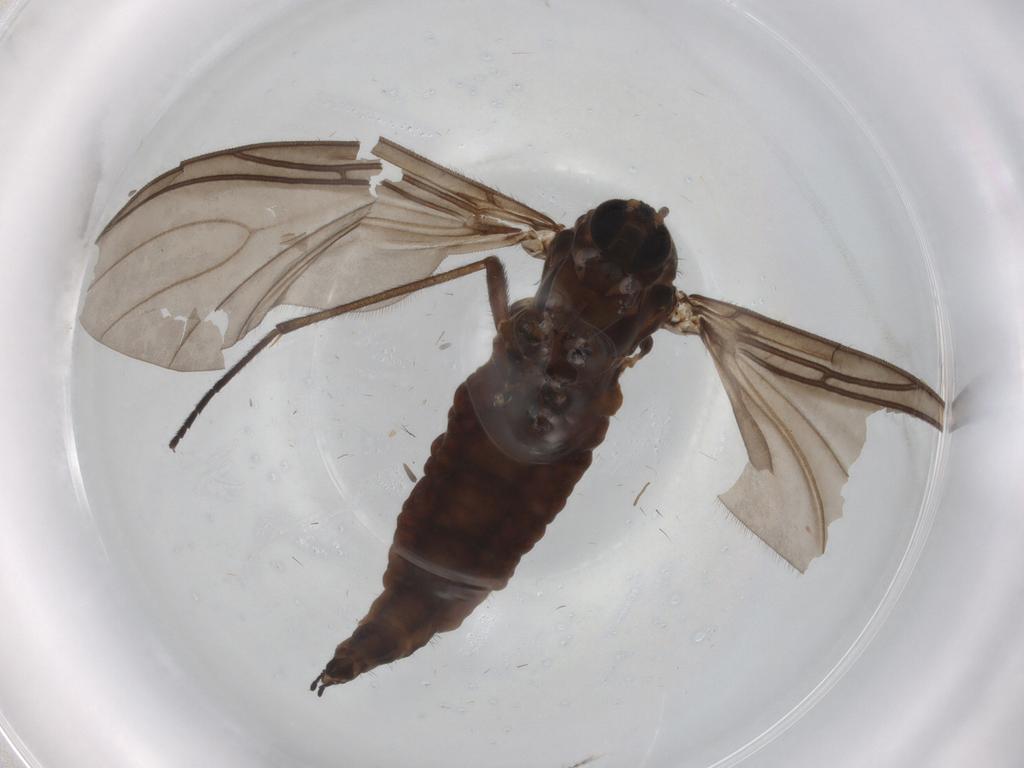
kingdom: Animalia
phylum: Arthropoda
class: Insecta
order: Diptera
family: Sciaridae
